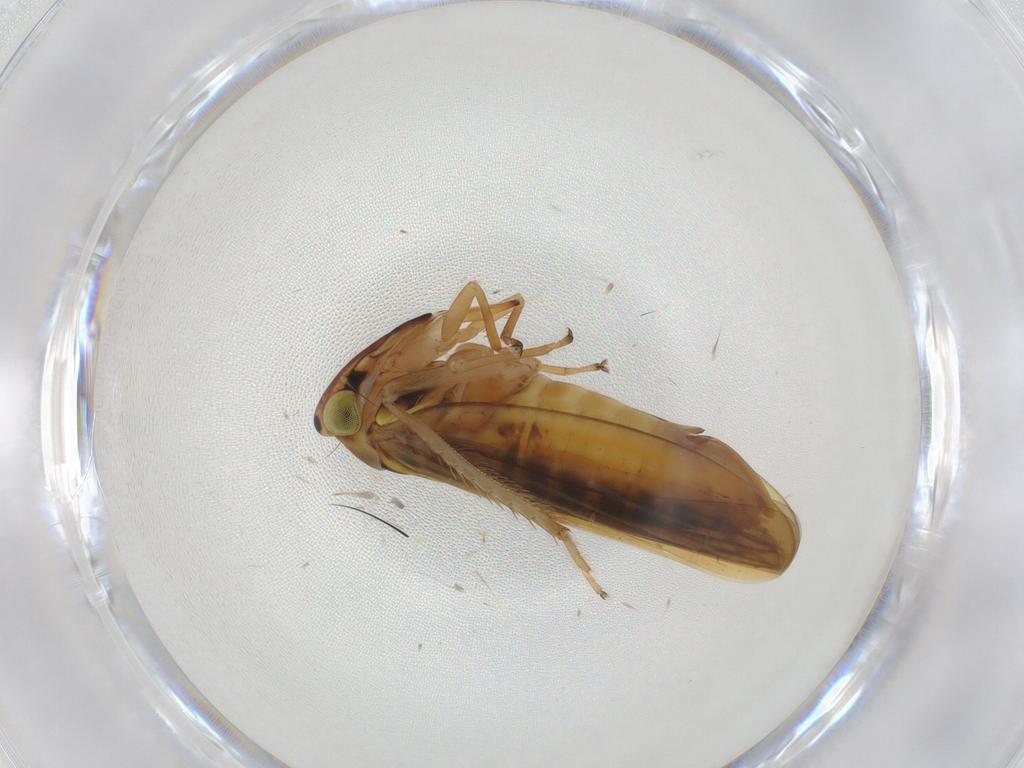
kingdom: Animalia
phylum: Arthropoda
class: Insecta
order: Hemiptera
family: Cicadellidae
